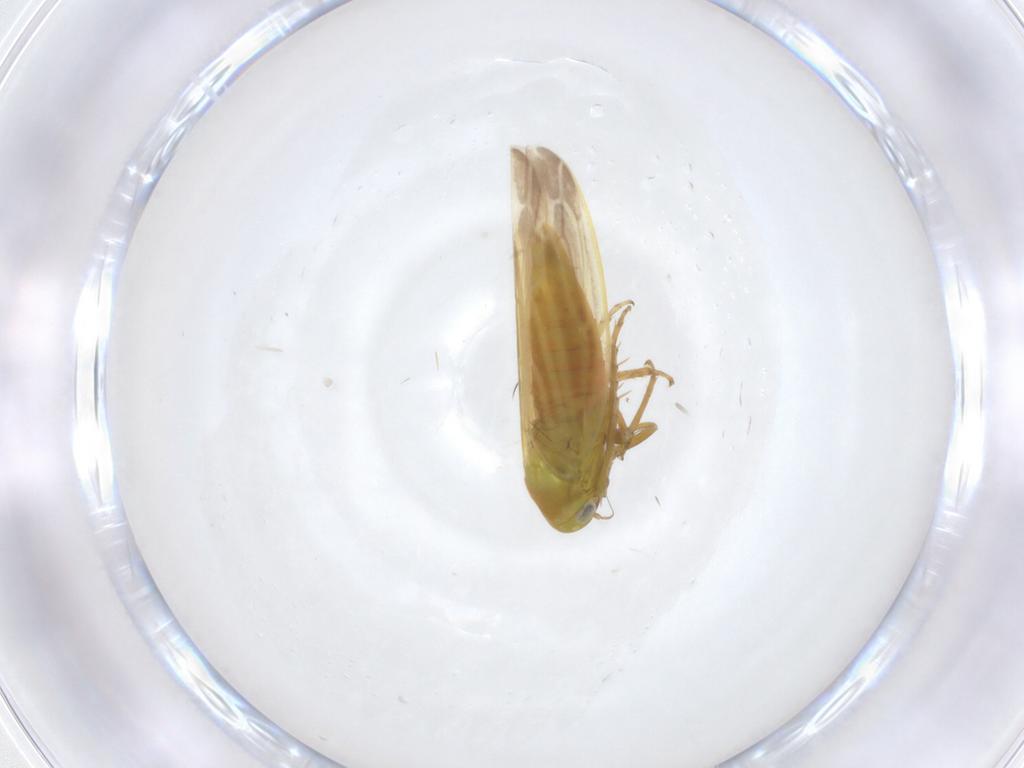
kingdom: Animalia
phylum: Arthropoda
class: Insecta
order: Hemiptera
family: Cicadellidae
